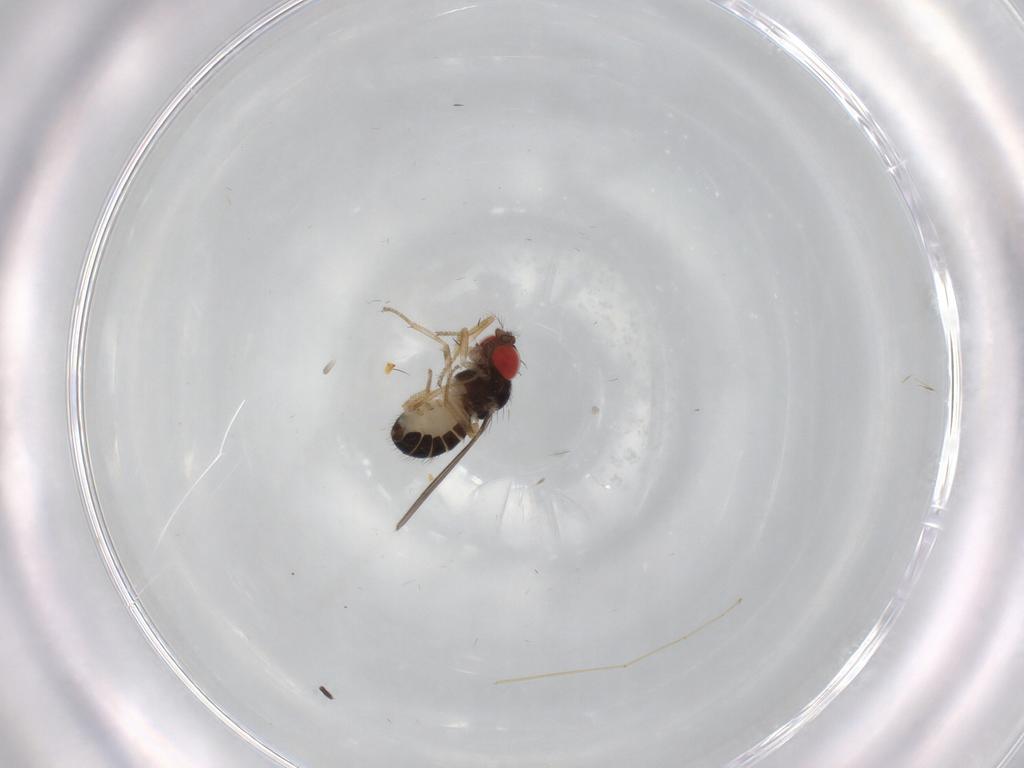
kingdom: Animalia
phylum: Arthropoda
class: Insecta
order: Diptera
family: Drosophilidae
